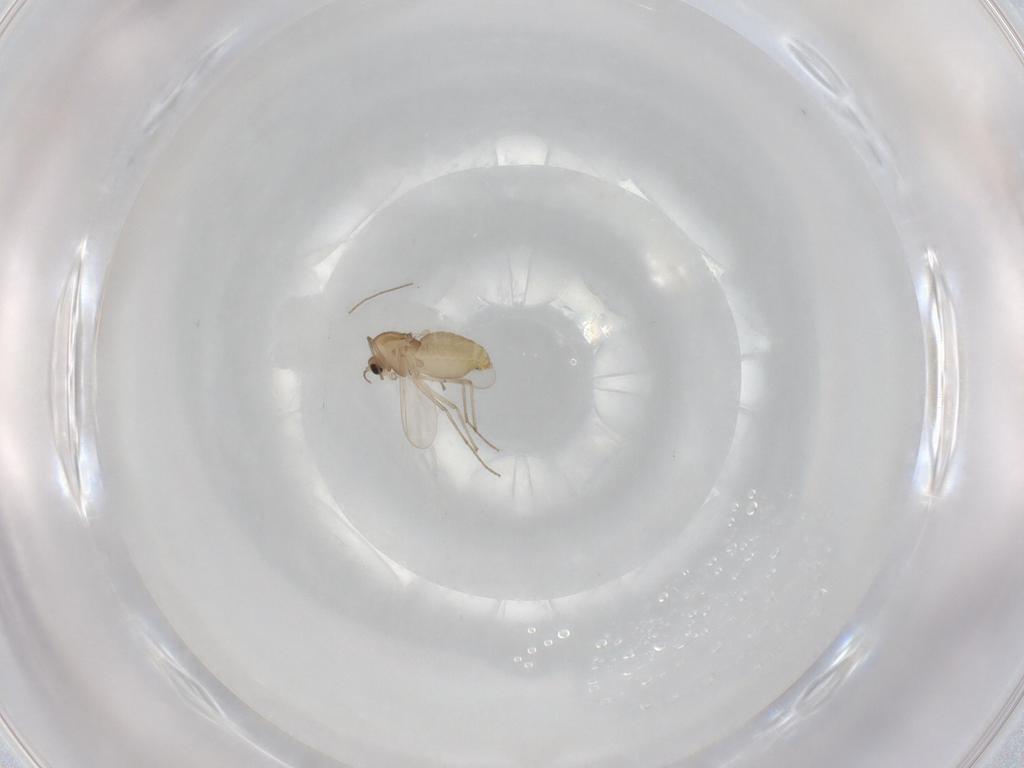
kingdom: Animalia
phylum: Arthropoda
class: Insecta
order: Diptera
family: Chironomidae
